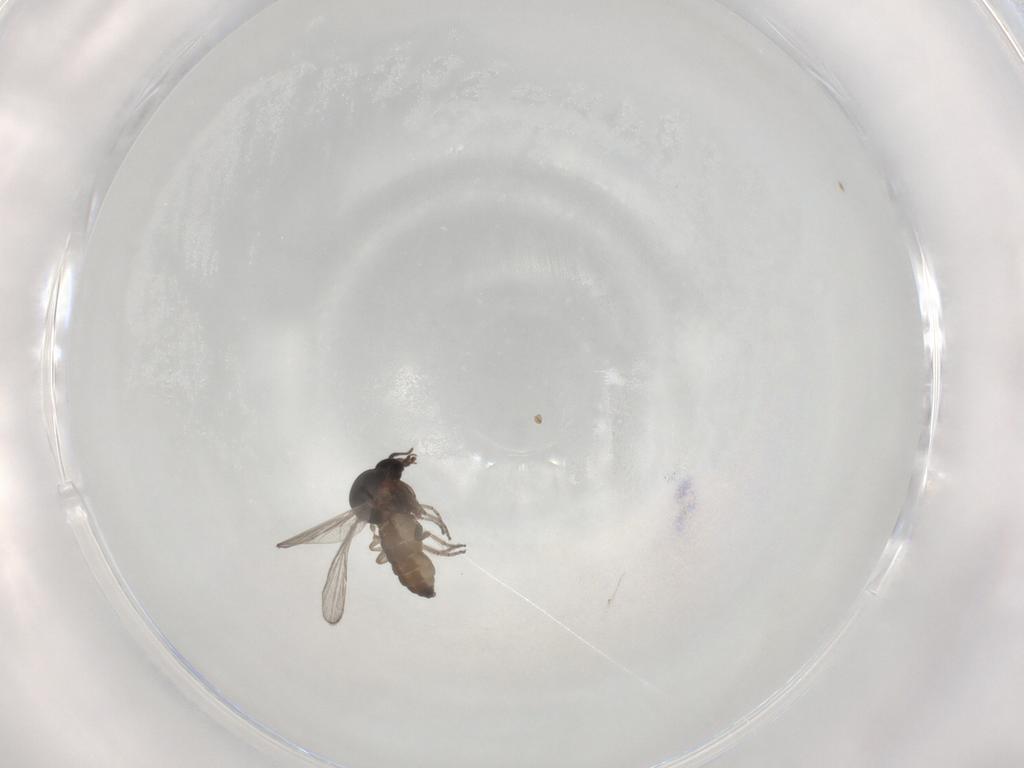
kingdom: Animalia
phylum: Arthropoda
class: Insecta
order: Diptera
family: Ceratopogonidae
